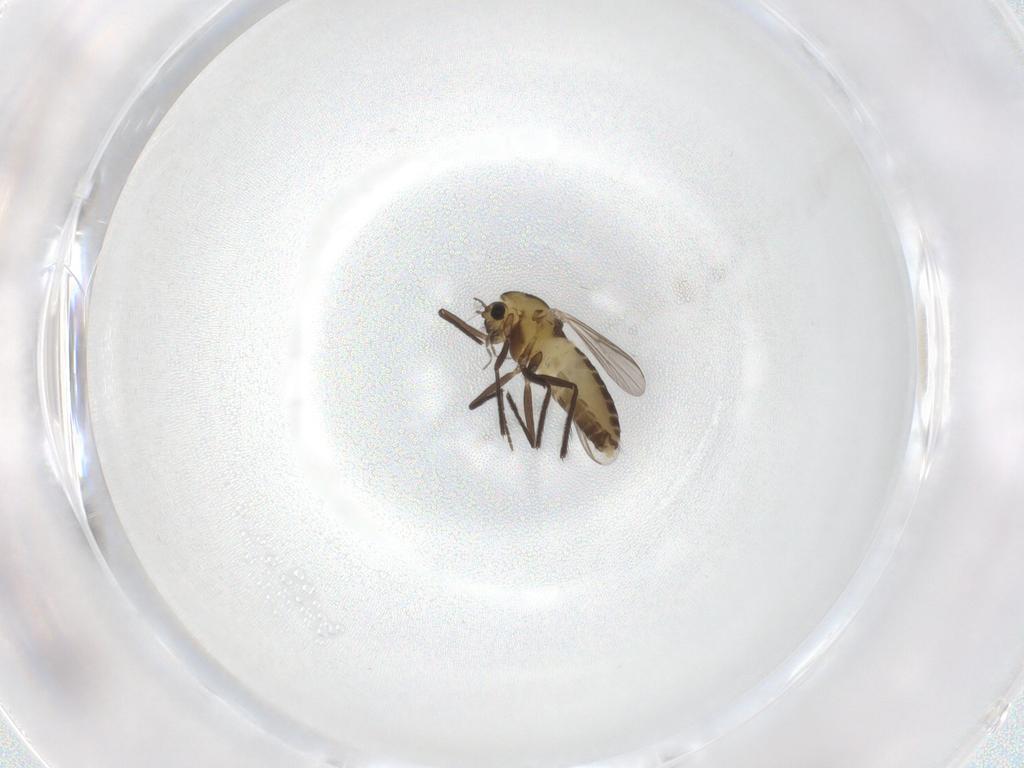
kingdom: Animalia
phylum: Arthropoda
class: Insecta
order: Diptera
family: Chironomidae
